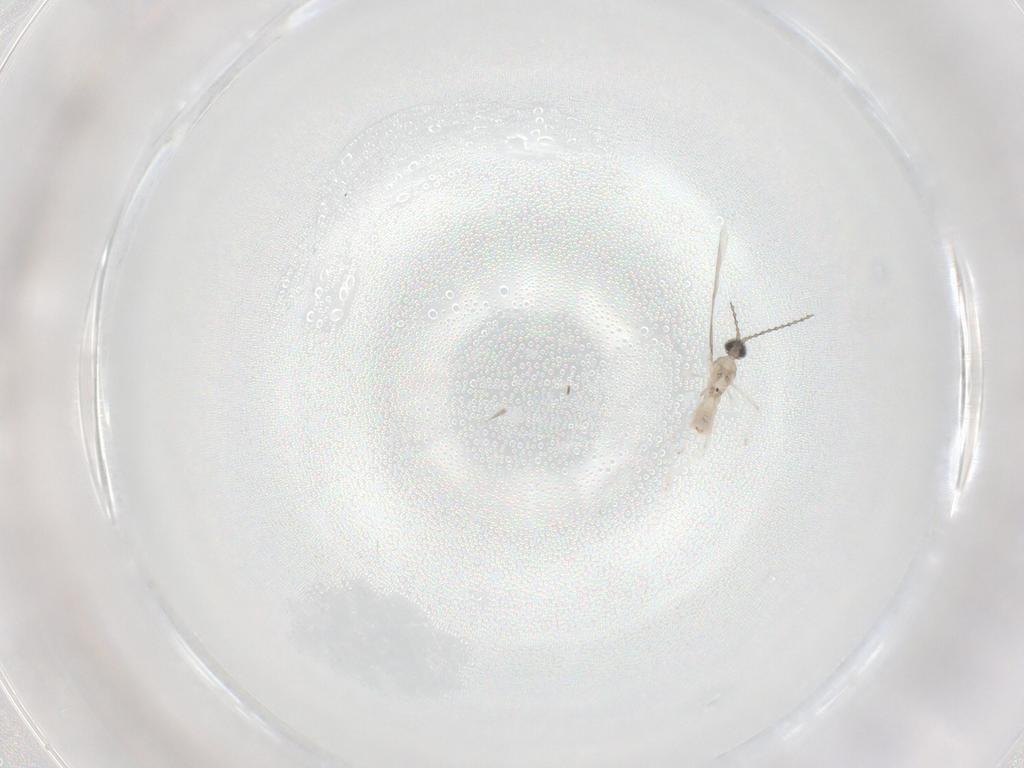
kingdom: Animalia
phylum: Arthropoda
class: Insecta
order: Diptera
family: Cecidomyiidae
